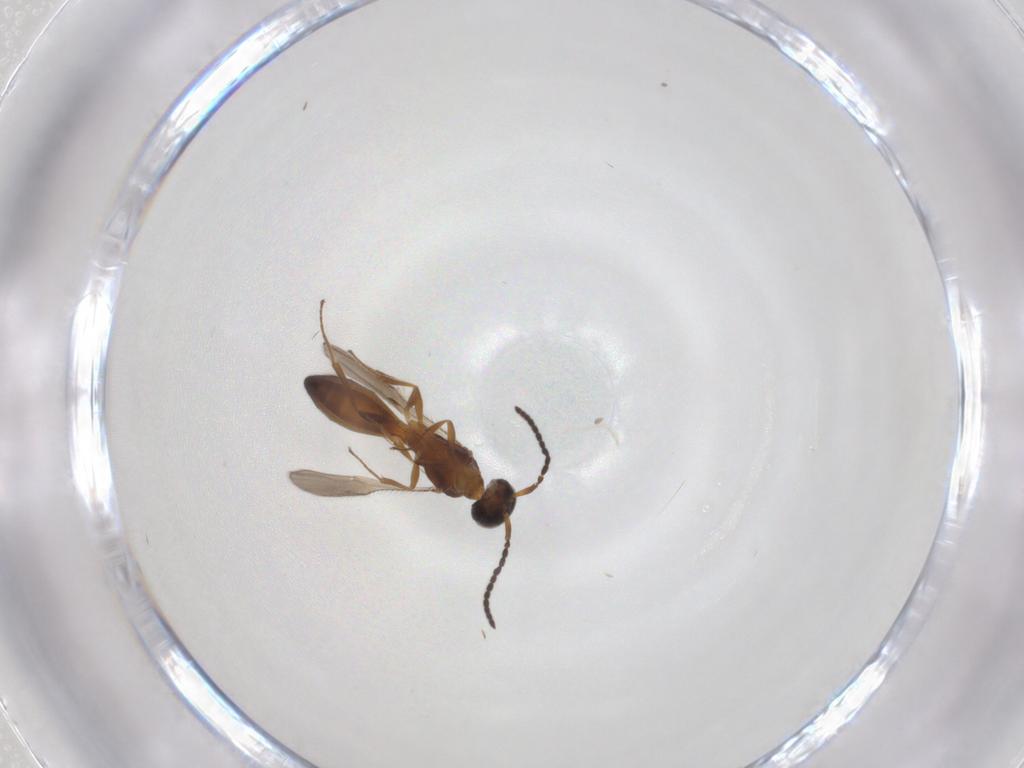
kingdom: Animalia
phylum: Arthropoda
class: Insecta
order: Hymenoptera
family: Scelionidae
